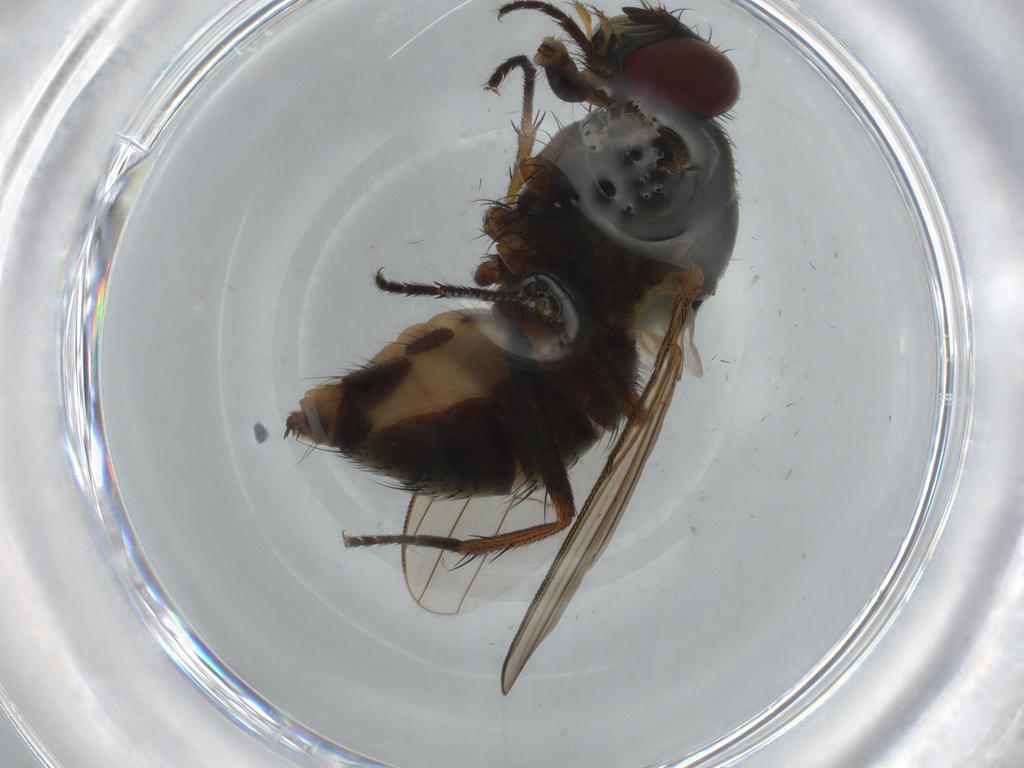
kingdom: Animalia
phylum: Arthropoda
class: Insecta
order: Diptera
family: Muscidae
